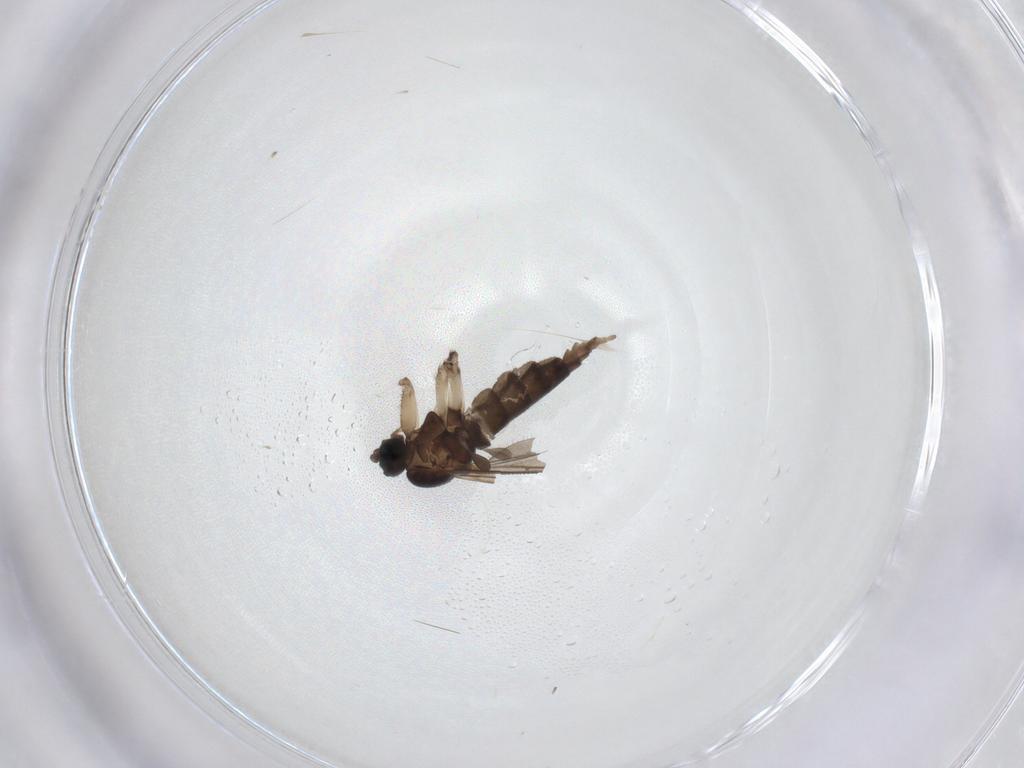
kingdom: Animalia
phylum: Arthropoda
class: Insecta
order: Diptera
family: Sciaridae
